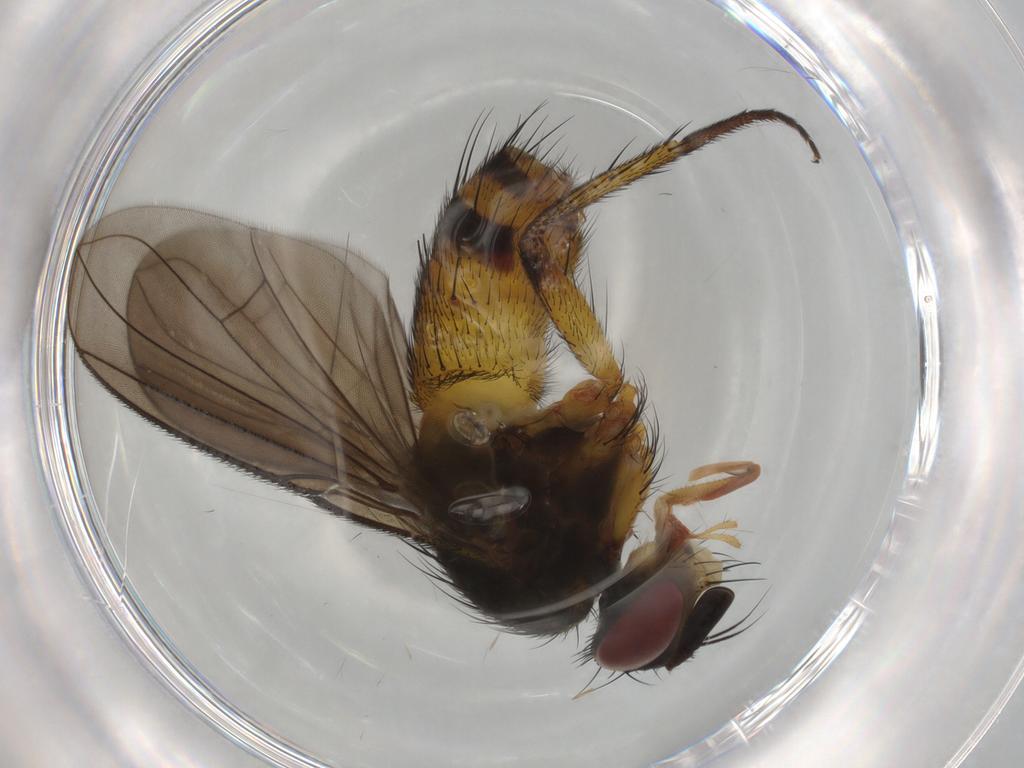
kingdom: Animalia
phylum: Arthropoda
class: Insecta
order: Diptera
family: Tachinidae
